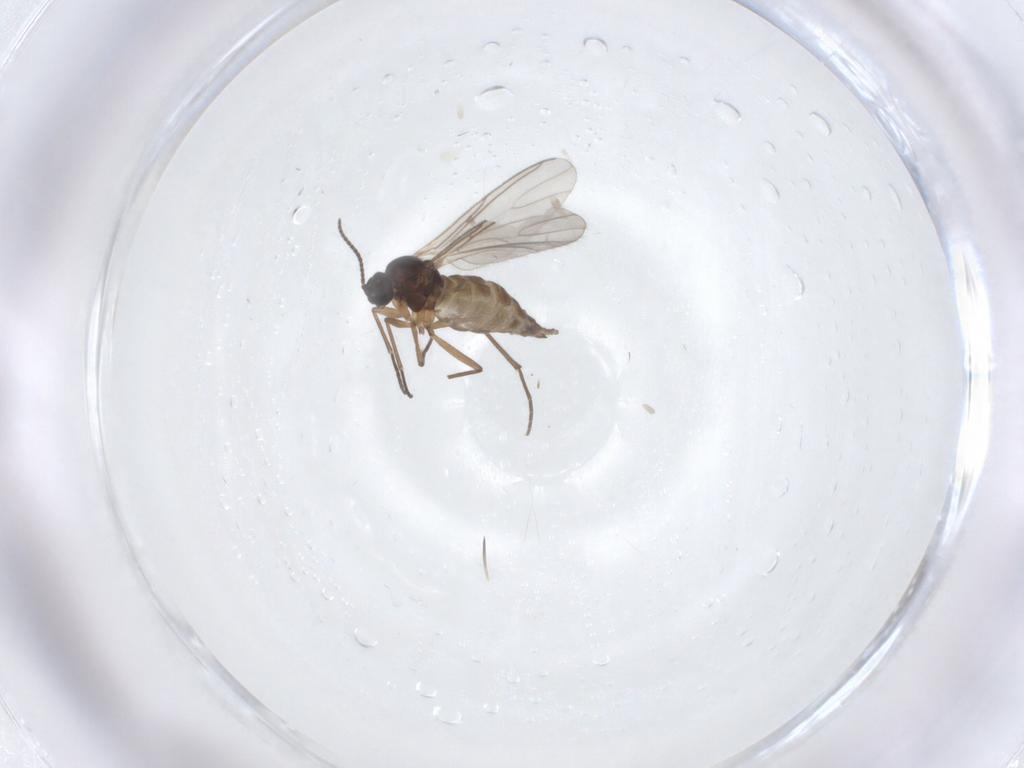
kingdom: Animalia
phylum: Arthropoda
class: Insecta
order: Diptera
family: Sciaridae
